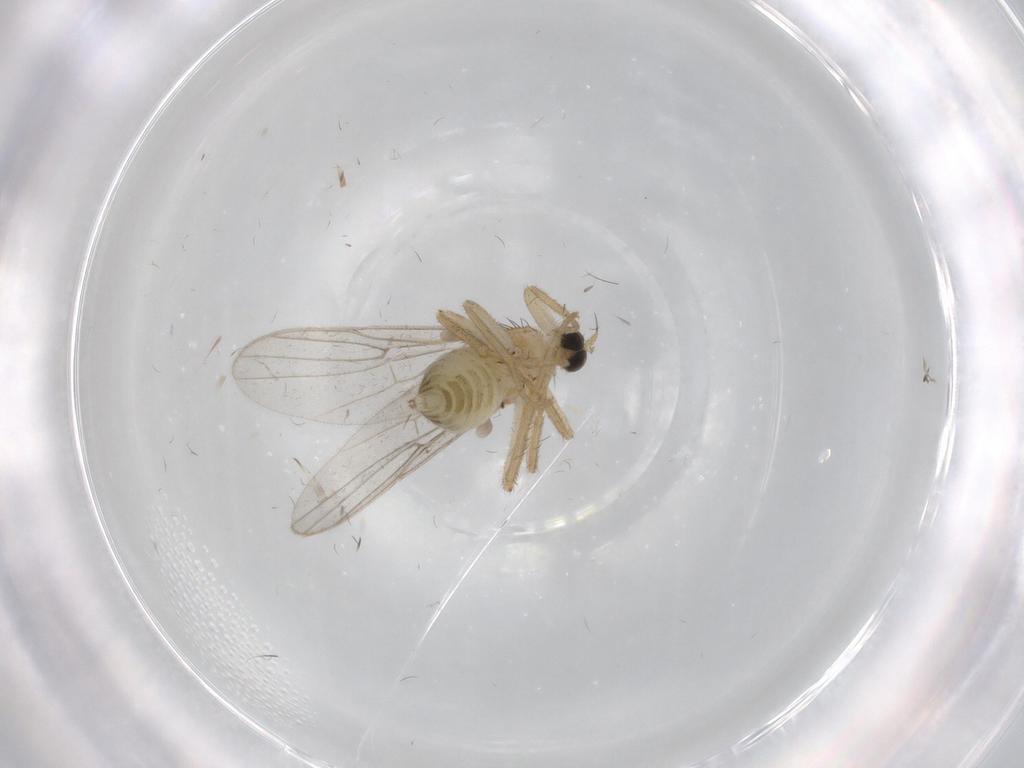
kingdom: Animalia
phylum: Arthropoda
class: Insecta
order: Diptera
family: Hybotidae
